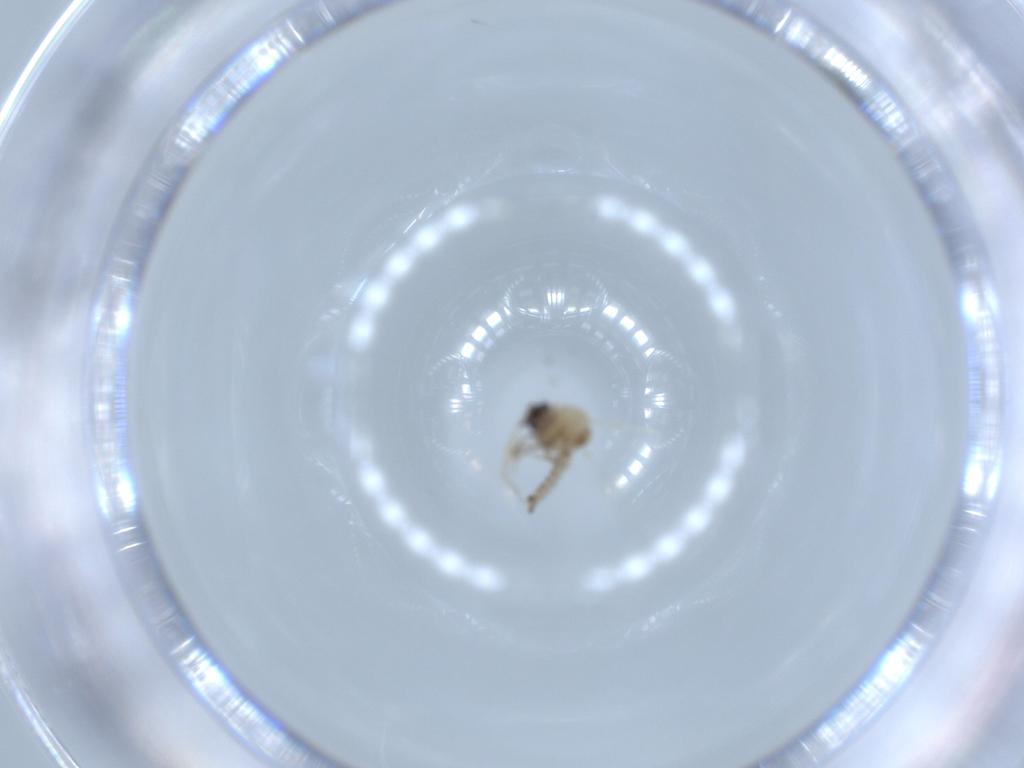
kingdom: Animalia
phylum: Arthropoda
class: Insecta
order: Diptera
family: Ceratopogonidae
